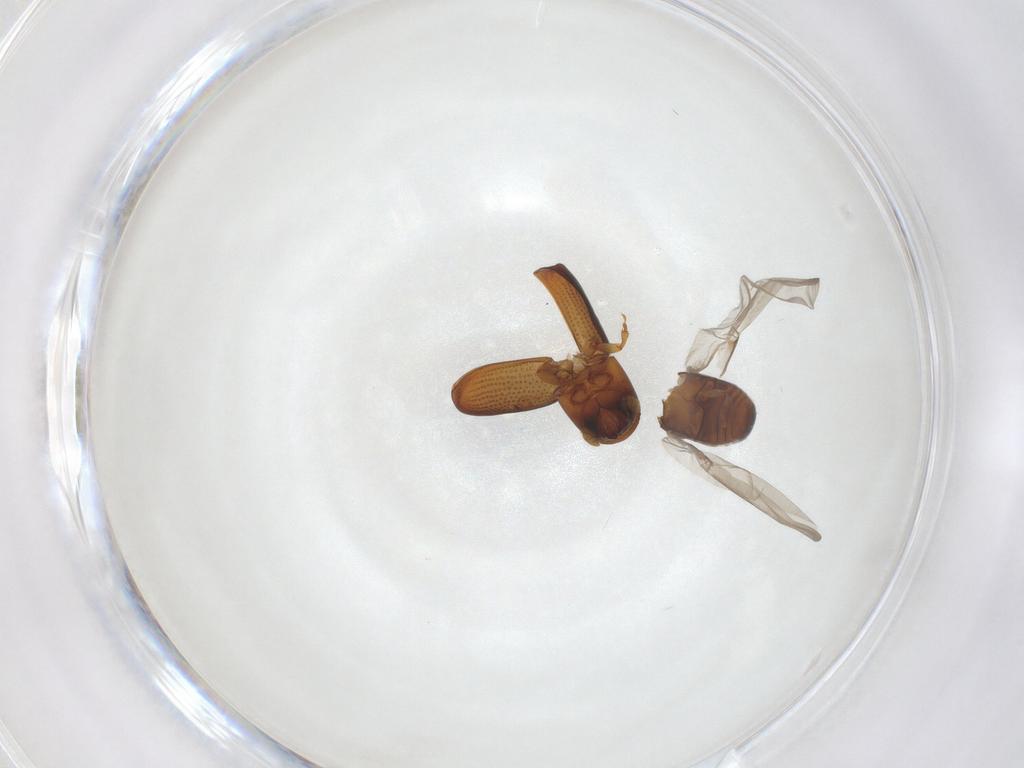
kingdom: Animalia
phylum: Arthropoda
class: Insecta
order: Coleoptera
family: Curculionidae
